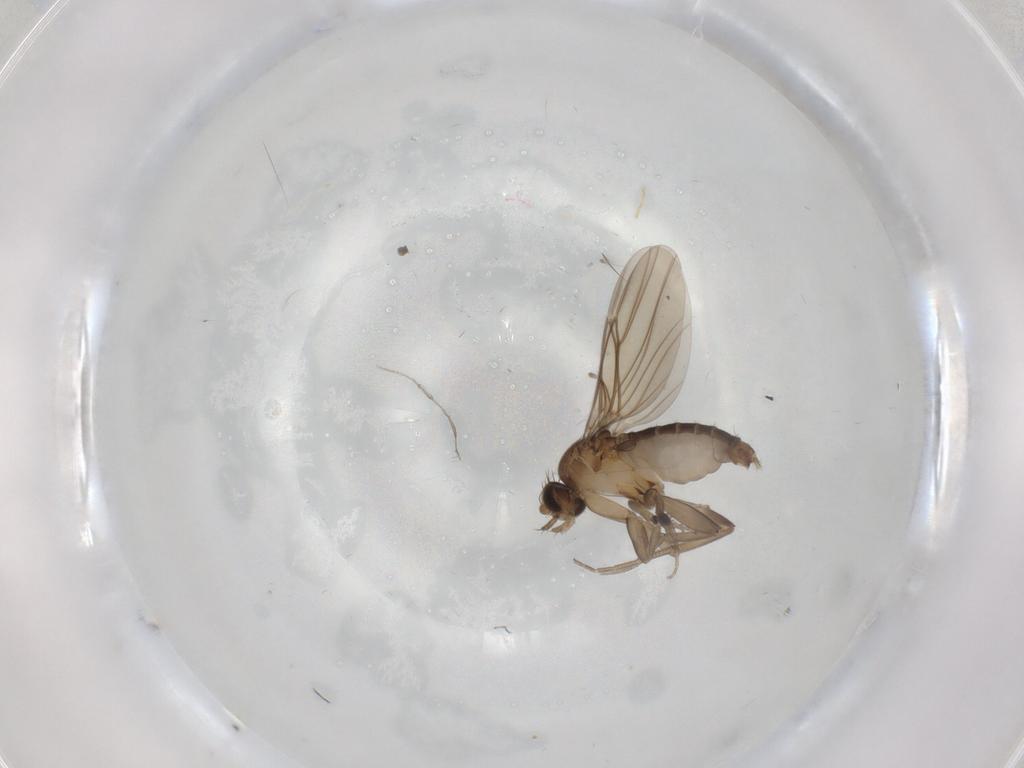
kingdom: Animalia
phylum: Arthropoda
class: Insecta
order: Diptera
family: Phoridae
